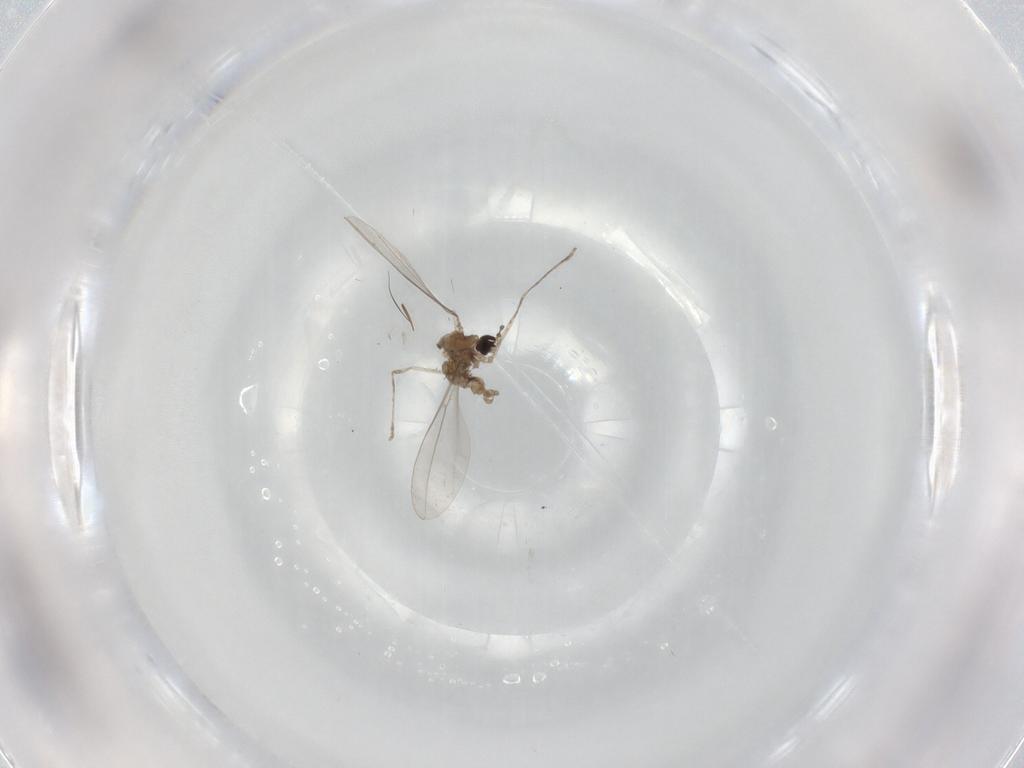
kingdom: Animalia
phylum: Arthropoda
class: Insecta
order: Diptera
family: Cecidomyiidae
